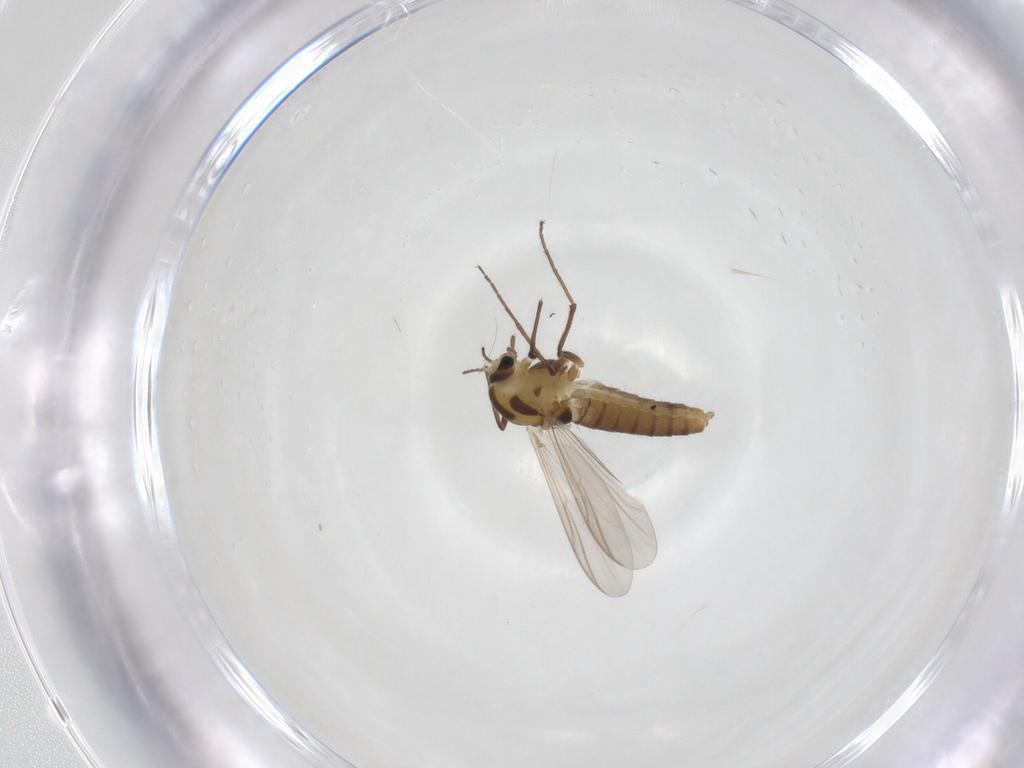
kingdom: Animalia
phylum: Arthropoda
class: Insecta
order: Diptera
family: Chironomidae
